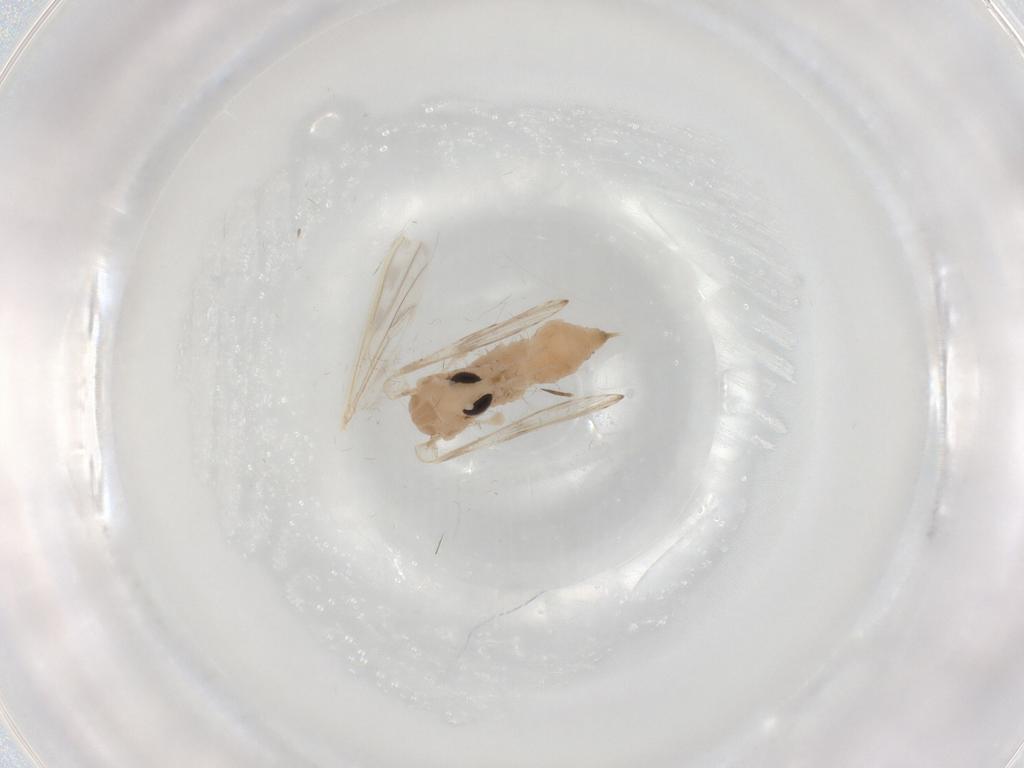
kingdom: Animalia
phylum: Arthropoda
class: Insecta
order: Diptera
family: Psychodidae
